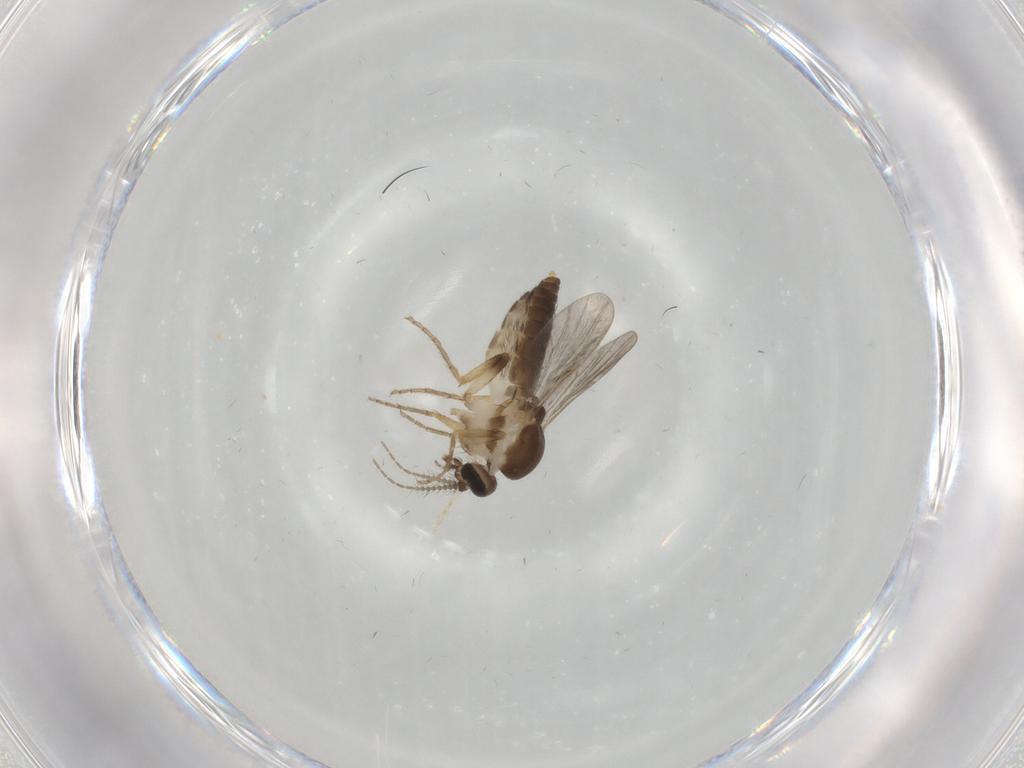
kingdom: Animalia
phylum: Arthropoda
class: Insecta
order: Diptera
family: Ceratopogonidae
